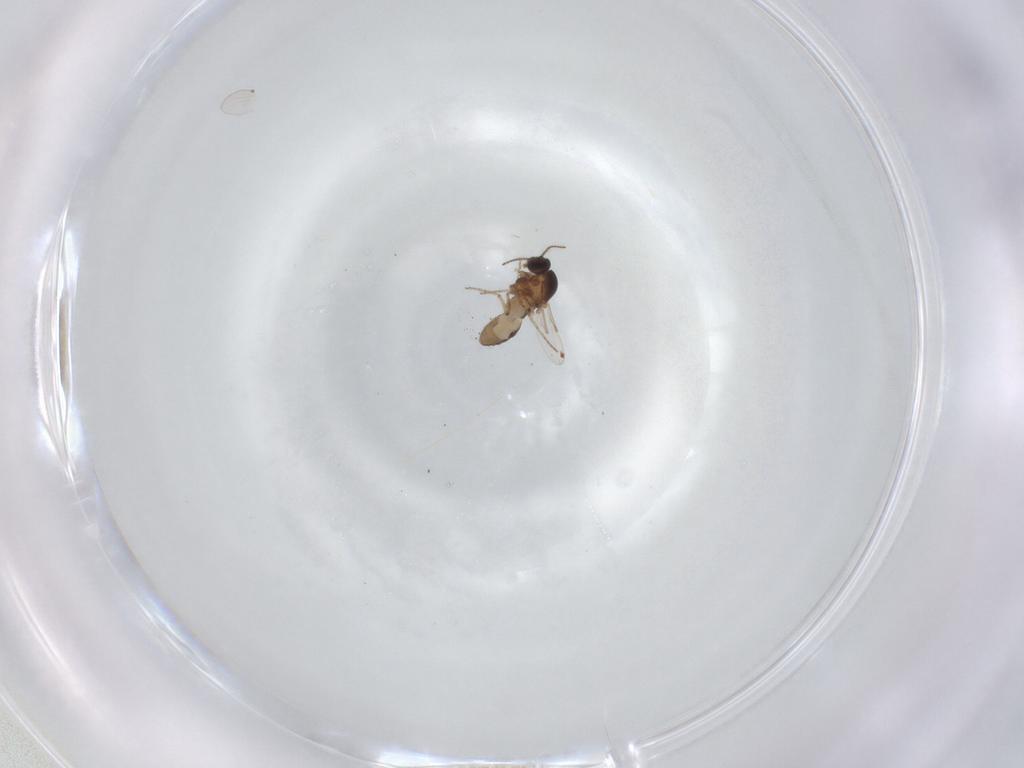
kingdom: Animalia
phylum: Arthropoda
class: Insecta
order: Diptera
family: Ceratopogonidae
